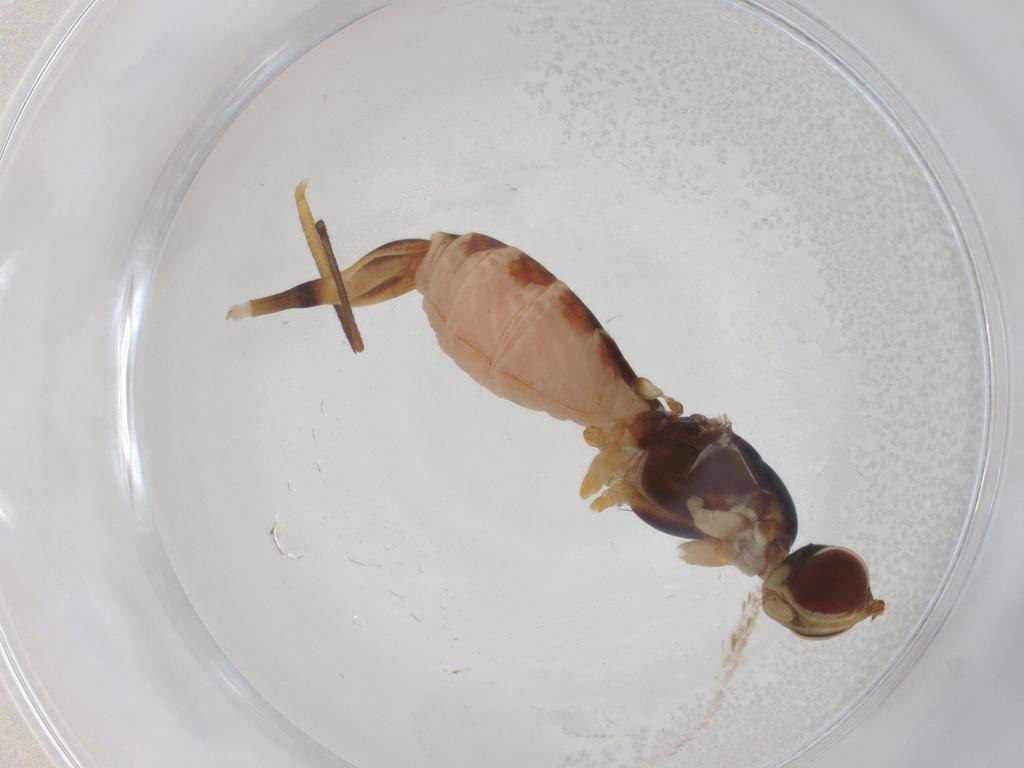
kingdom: Animalia
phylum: Arthropoda
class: Insecta
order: Diptera
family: Micropezidae
